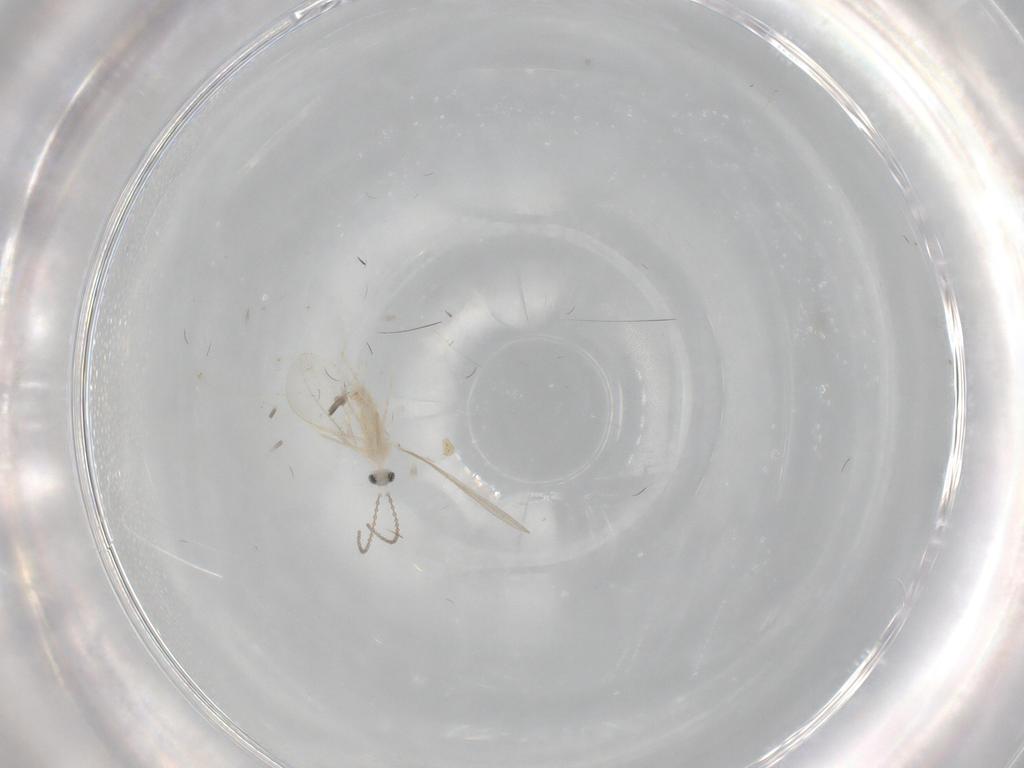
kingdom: Animalia
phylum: Arthropoda
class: Insecta
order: Diptera
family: Cecidomyiidae
